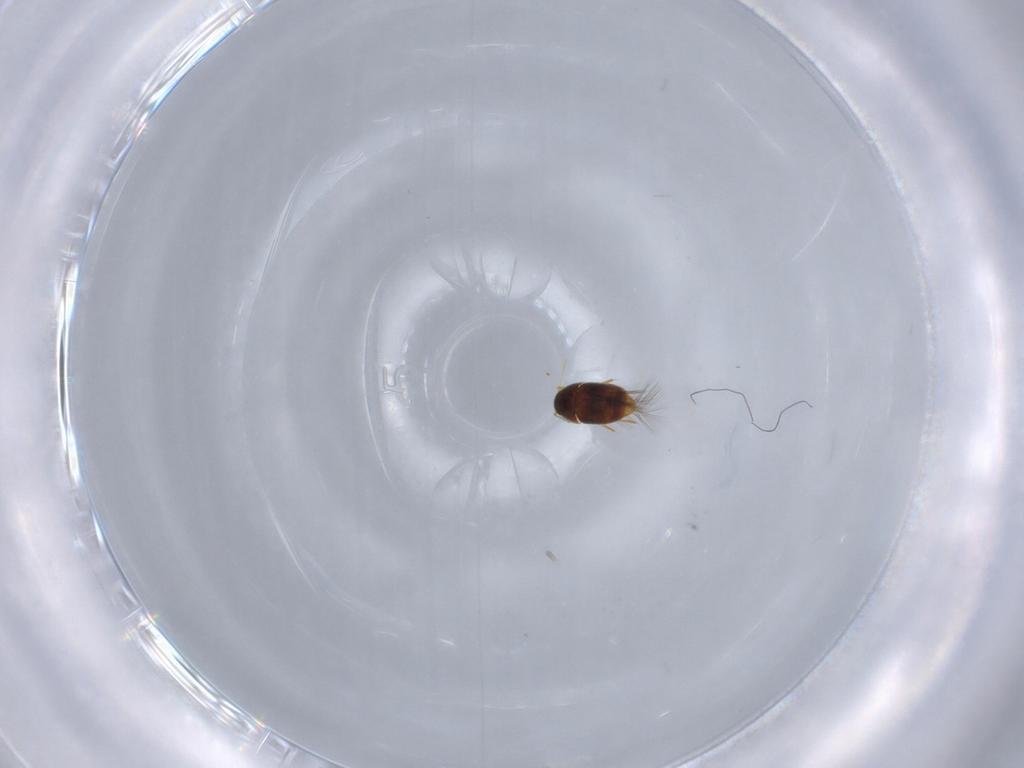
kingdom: Animalia
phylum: Arthropoda
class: Insecta
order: Coleoptera
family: Ptiliidae
